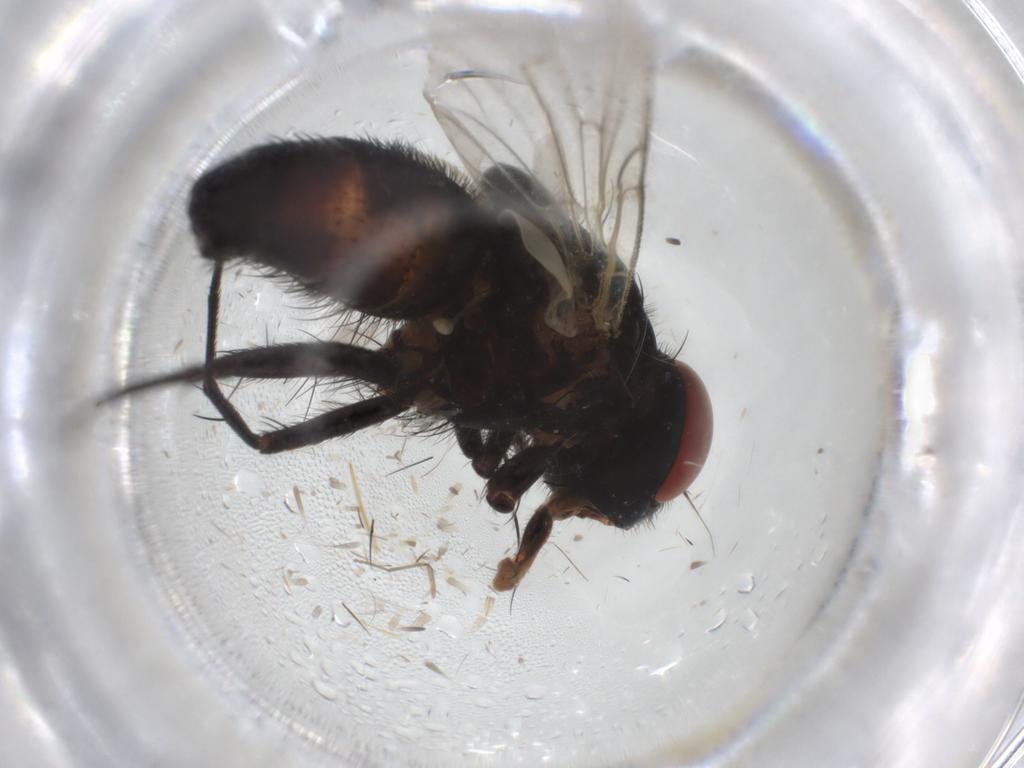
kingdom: Animalia
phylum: Arthropoda
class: Insecta
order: Diptera
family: Sarcophagidae
